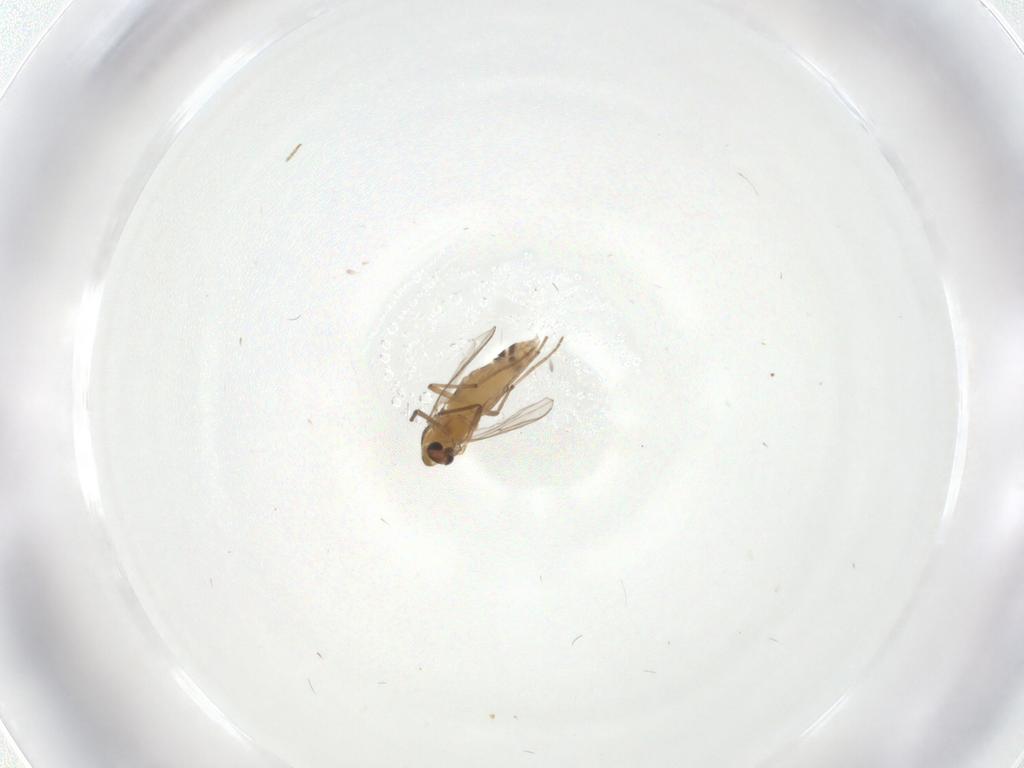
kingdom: Animalia
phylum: Arthropoda
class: Insecta
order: Diptera
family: Cecidomyiidae
